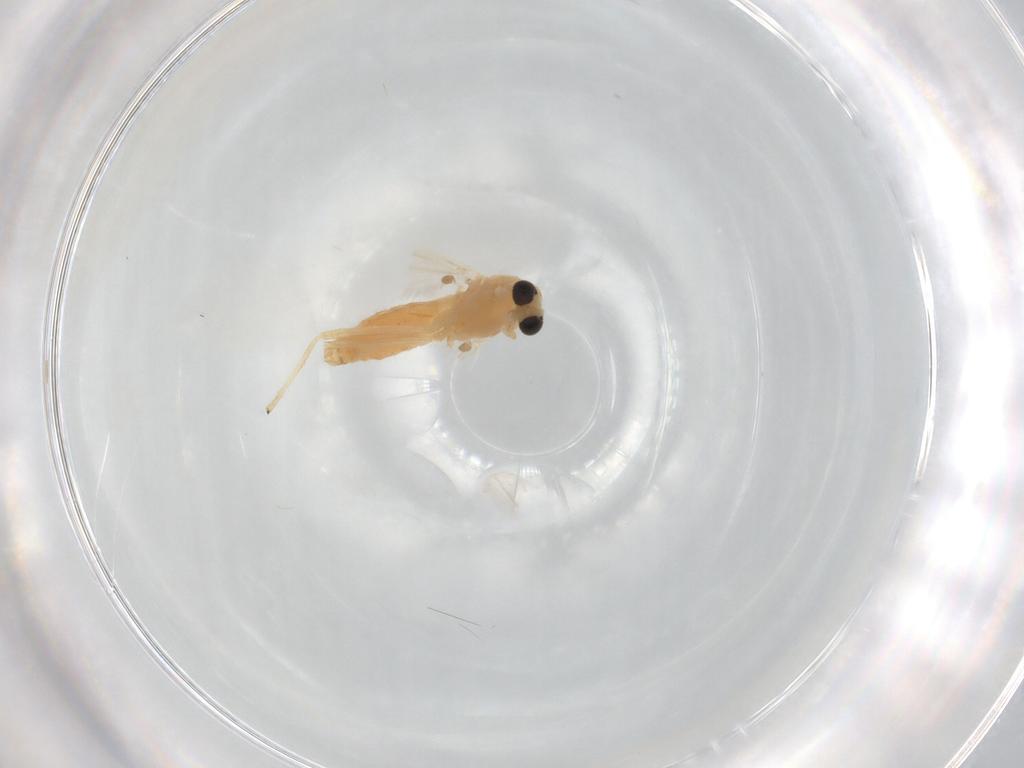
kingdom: Animalia
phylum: Arthropoda
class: Insecta
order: Diptera
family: Chironomidae
